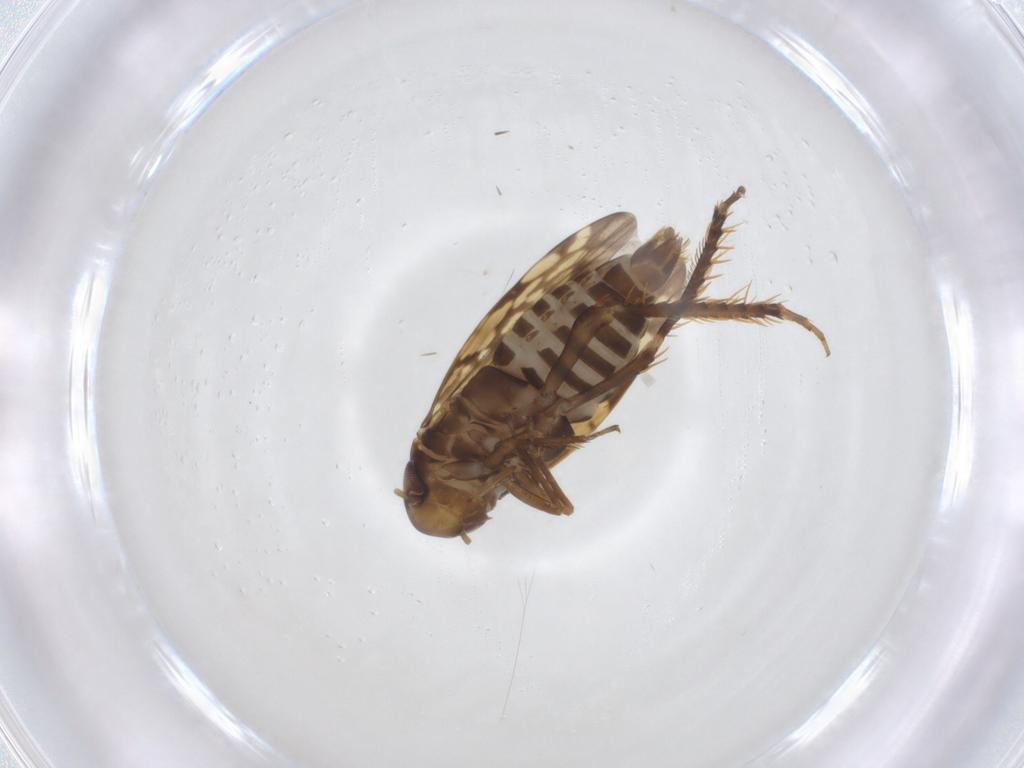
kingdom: Animalia
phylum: Arthropoda
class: Insecta
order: Hemiptera
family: Cicadellidae
